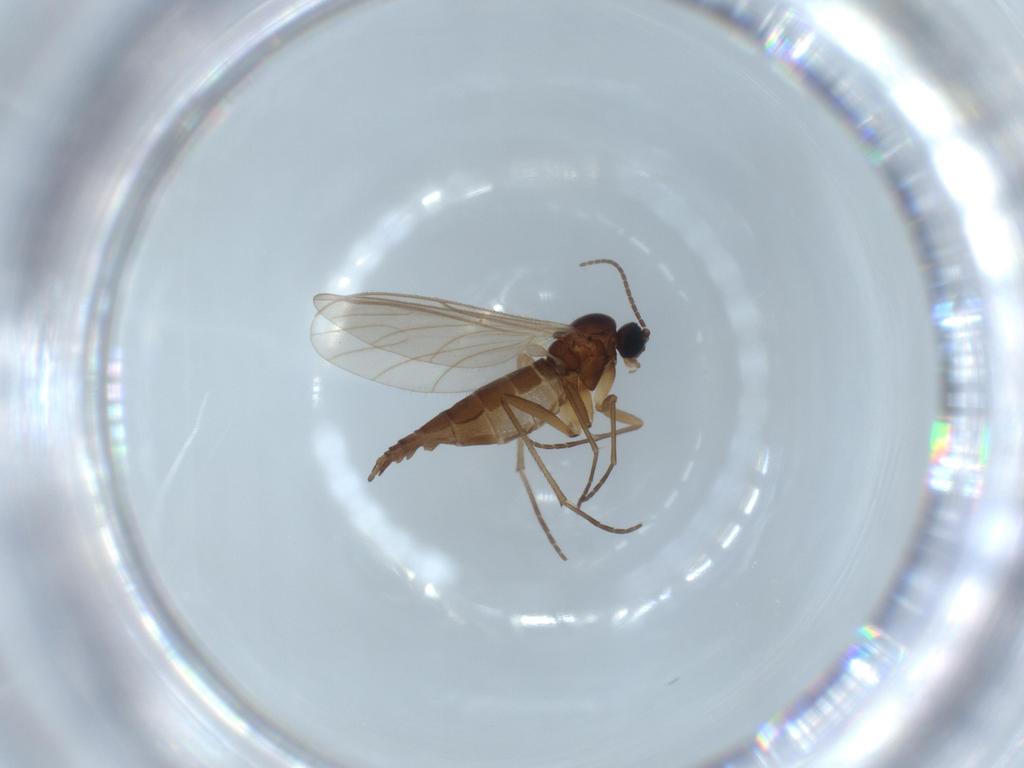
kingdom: Animalia
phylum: Arthropoda
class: Insecta
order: Diptera
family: Sciaridae
